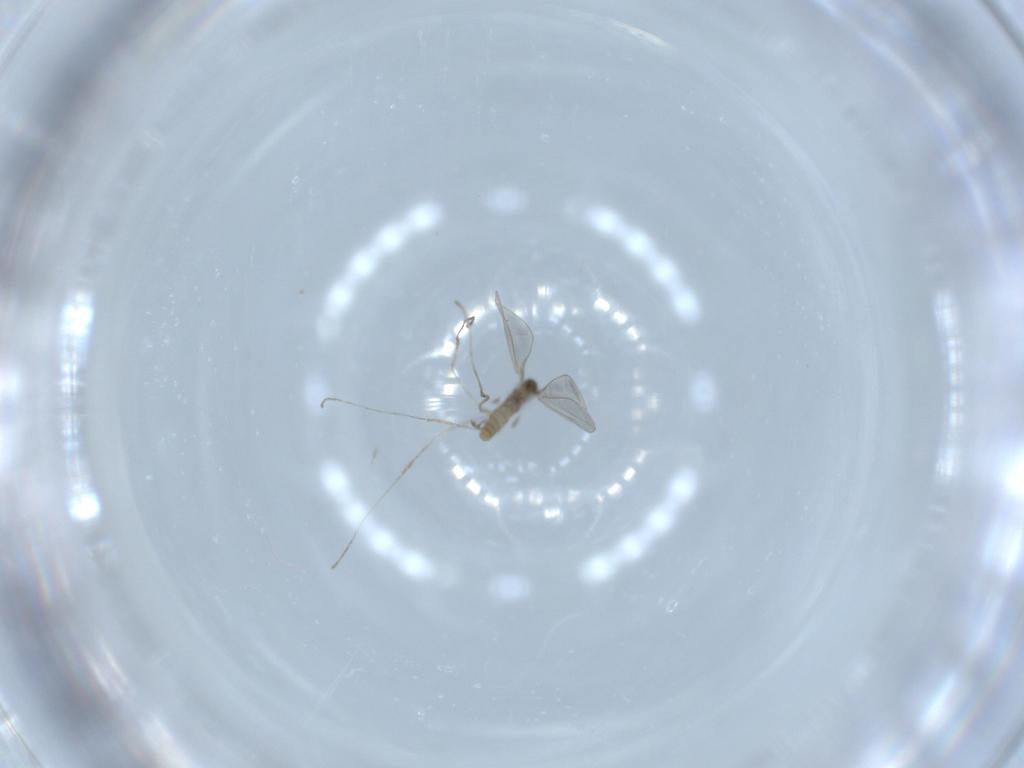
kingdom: Animalia
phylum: Arthropoda
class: Insecta
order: Diptera
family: Cecidomyiidae
